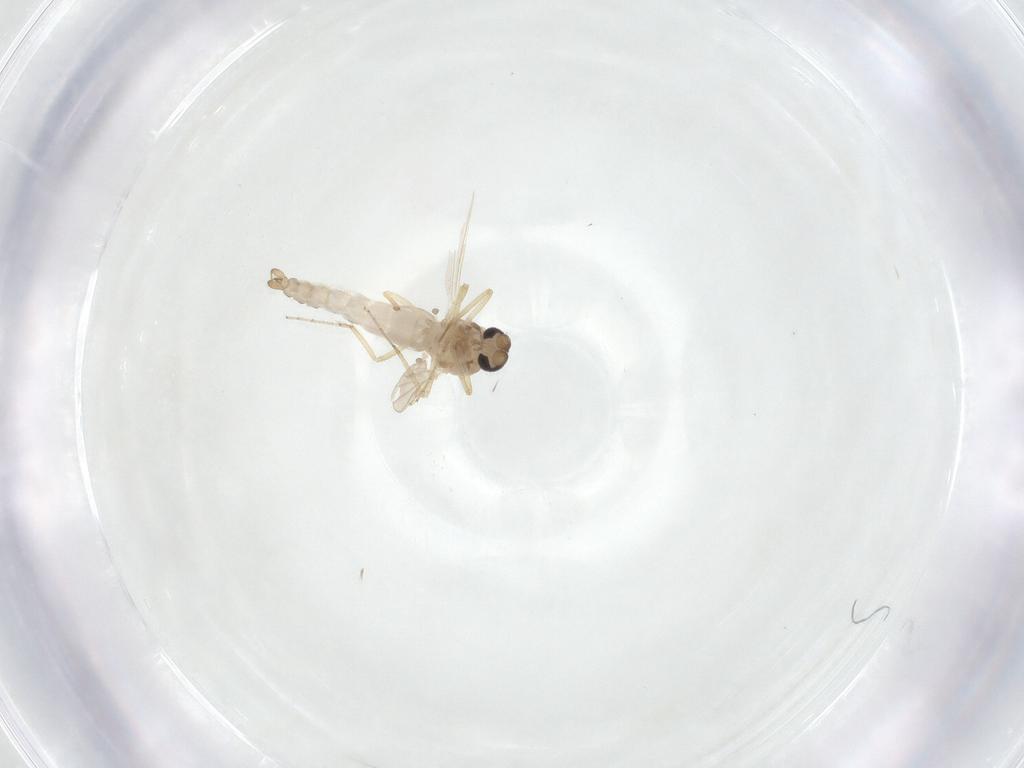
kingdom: Animalia
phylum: Arthropoda
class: Insecta
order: Diptera
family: Ceratopogonidae
